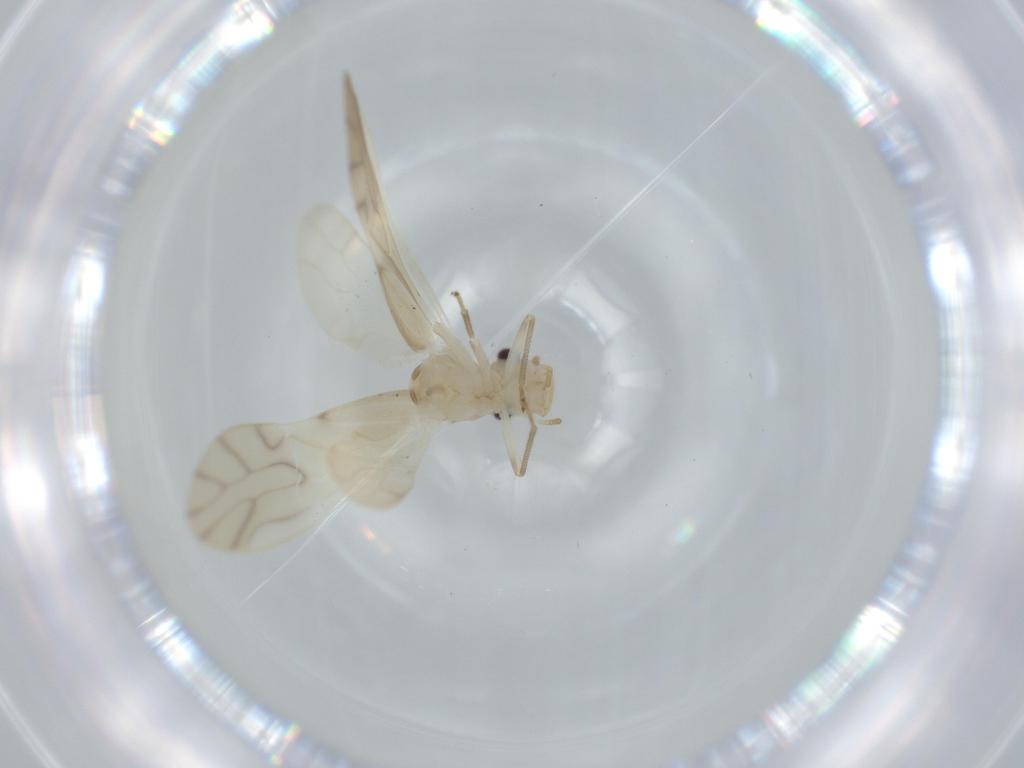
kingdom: Animalia
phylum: Arthropoda
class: Insecta
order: Psocodea
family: Caeciliusidae
